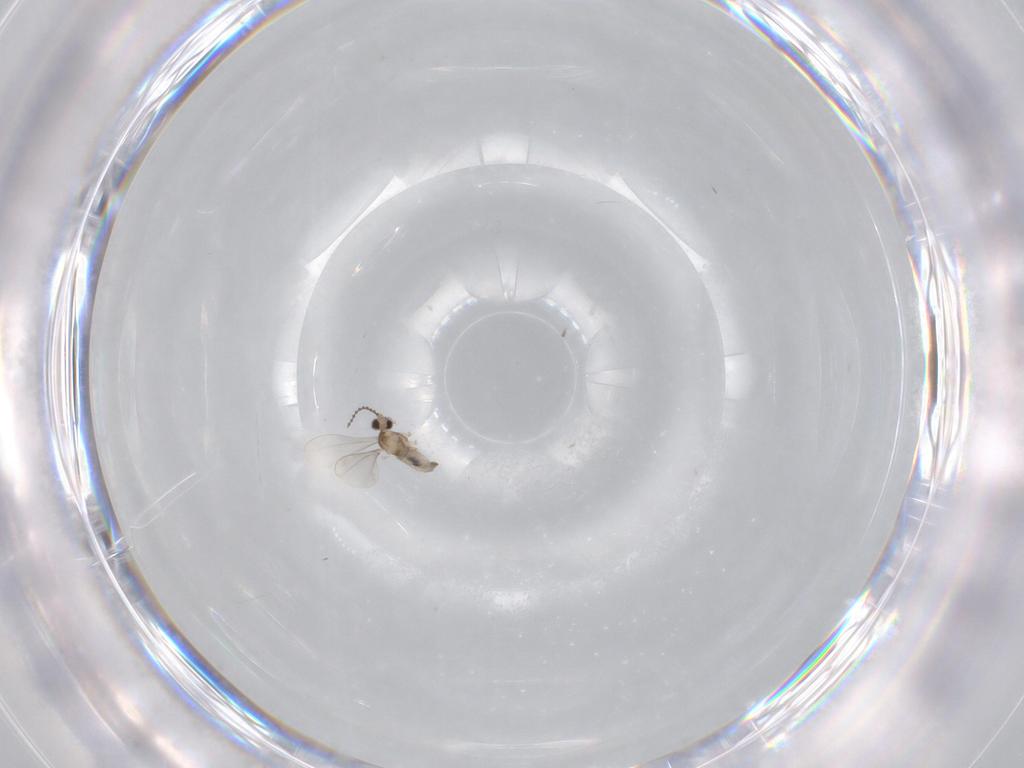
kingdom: Animalia
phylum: Arthropoda
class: Insecta
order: Diptera
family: Cecidomyiidae
